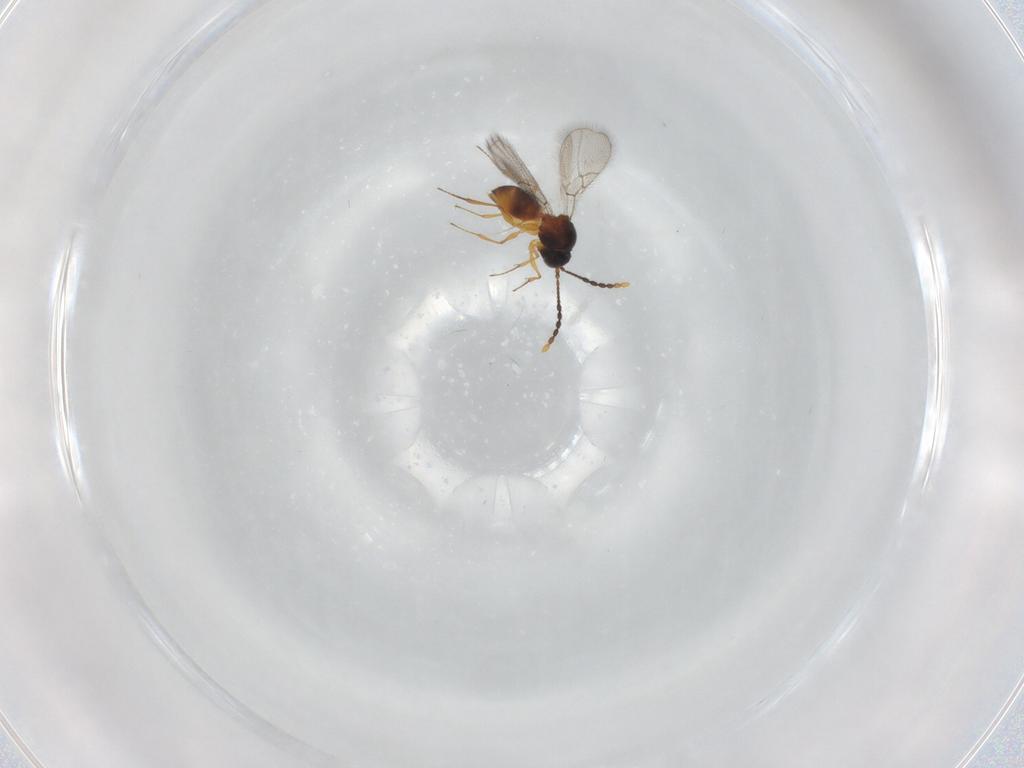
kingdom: Animalia
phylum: Arthropoda
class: Insecta
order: Hymenoptera
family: Figitidae
